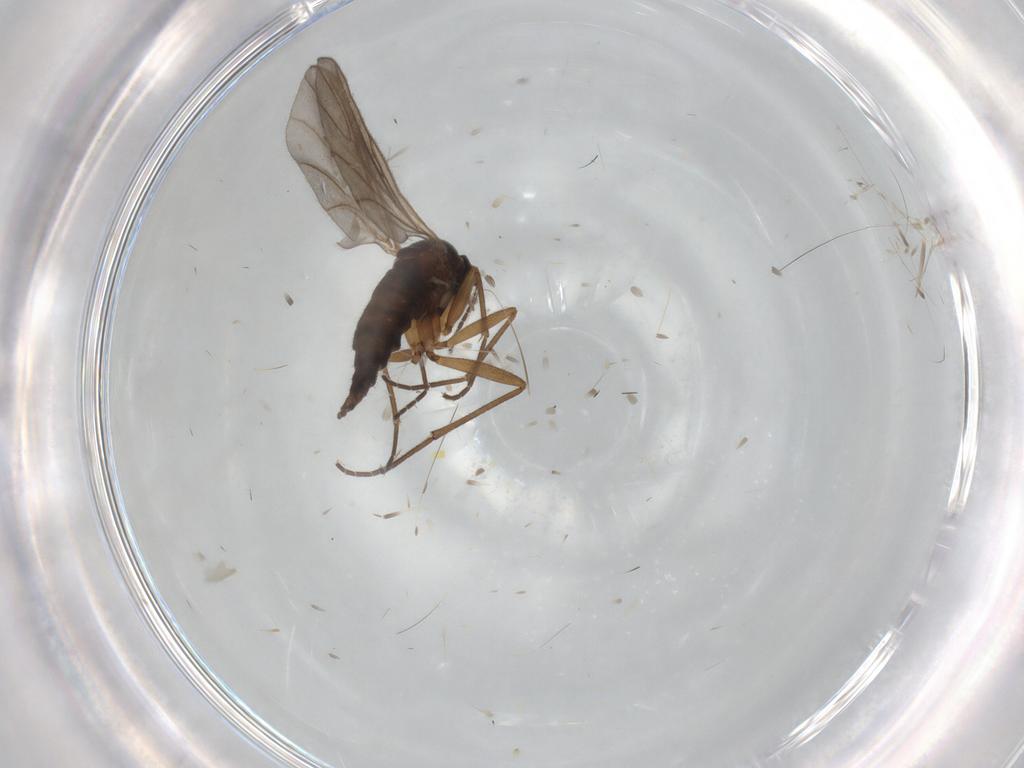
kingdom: Animalia
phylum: Arthropoda
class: Insecta
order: Diptera
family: Sciaridae
